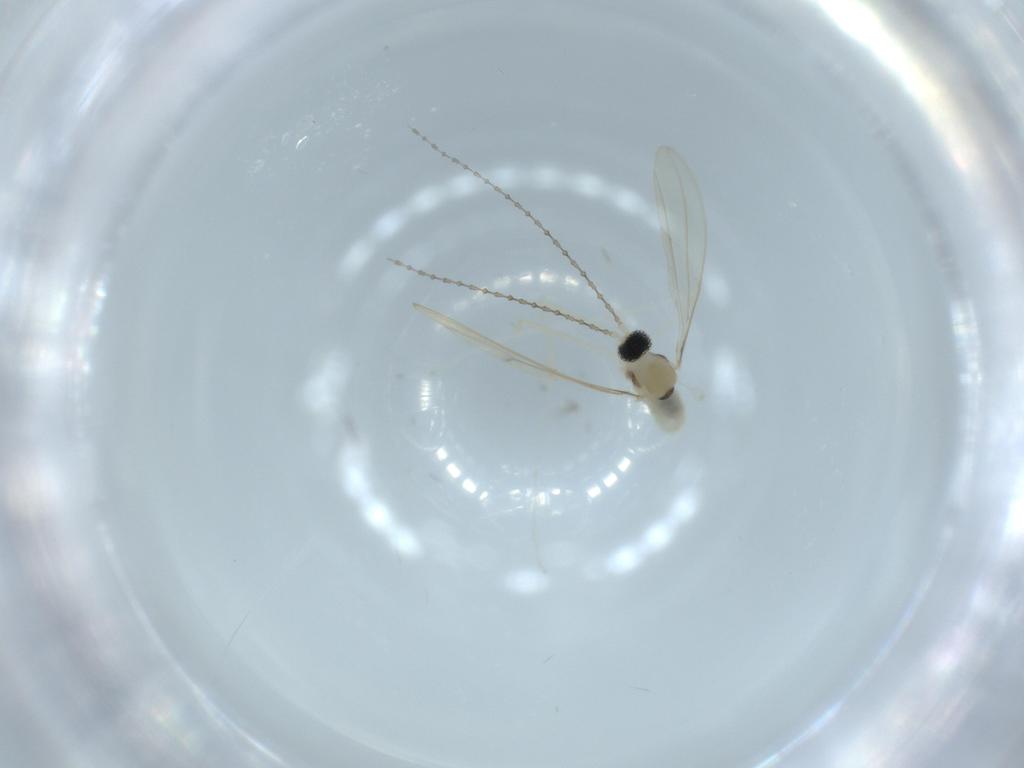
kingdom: Animalia
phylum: Arthropoda
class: Insecta
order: Diptera
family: Cecidomyiidae
